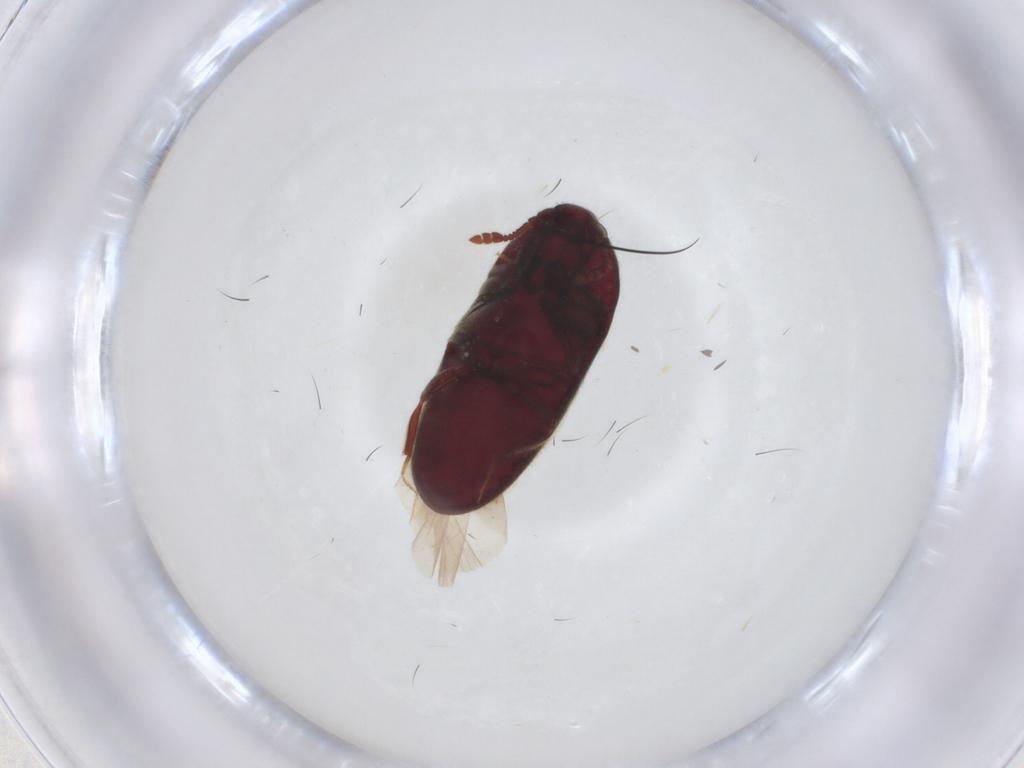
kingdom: Animalia
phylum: Arthropoda
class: Insecta
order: Coleoptera
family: Throscidae
